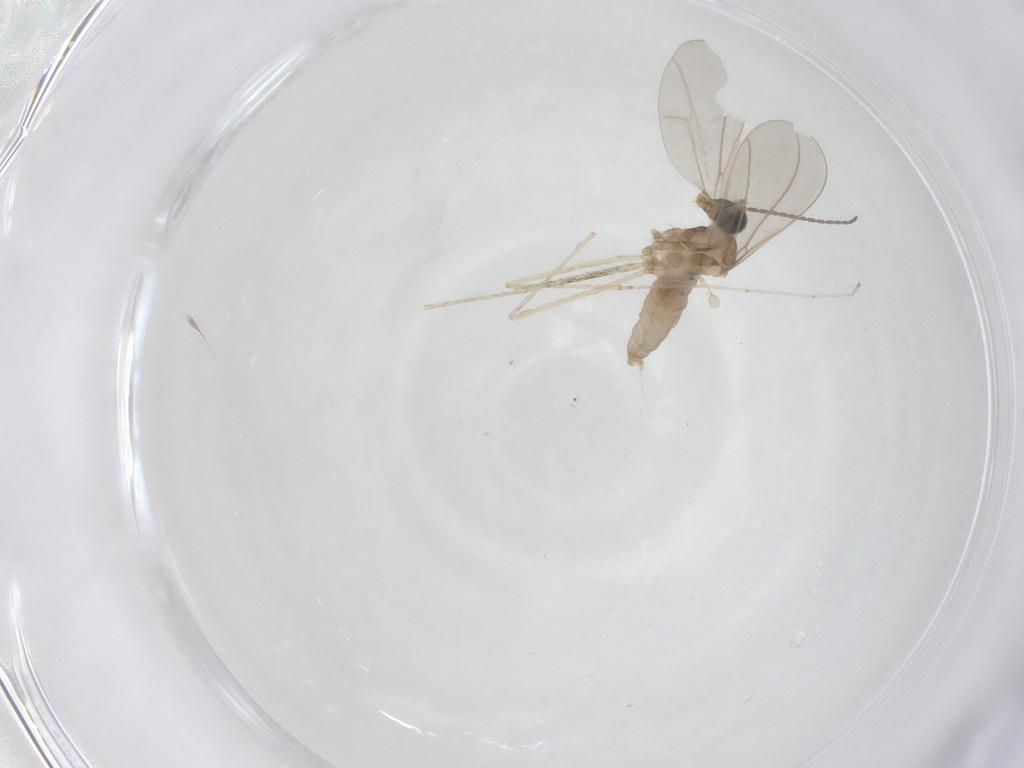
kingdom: Animalia
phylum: Arthropoda
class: Insecta
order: Diptera
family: Cecidomyiidae
